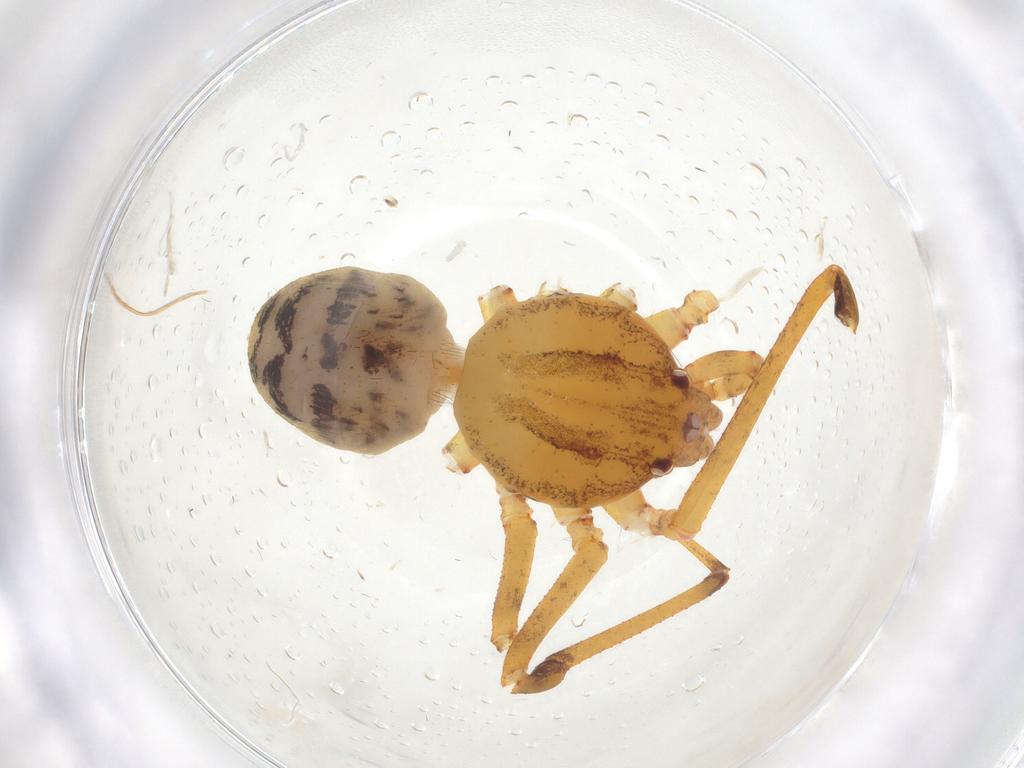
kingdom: Animalia
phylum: Arthropoda
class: Arachnida
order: Araneae
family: Scytodidae
